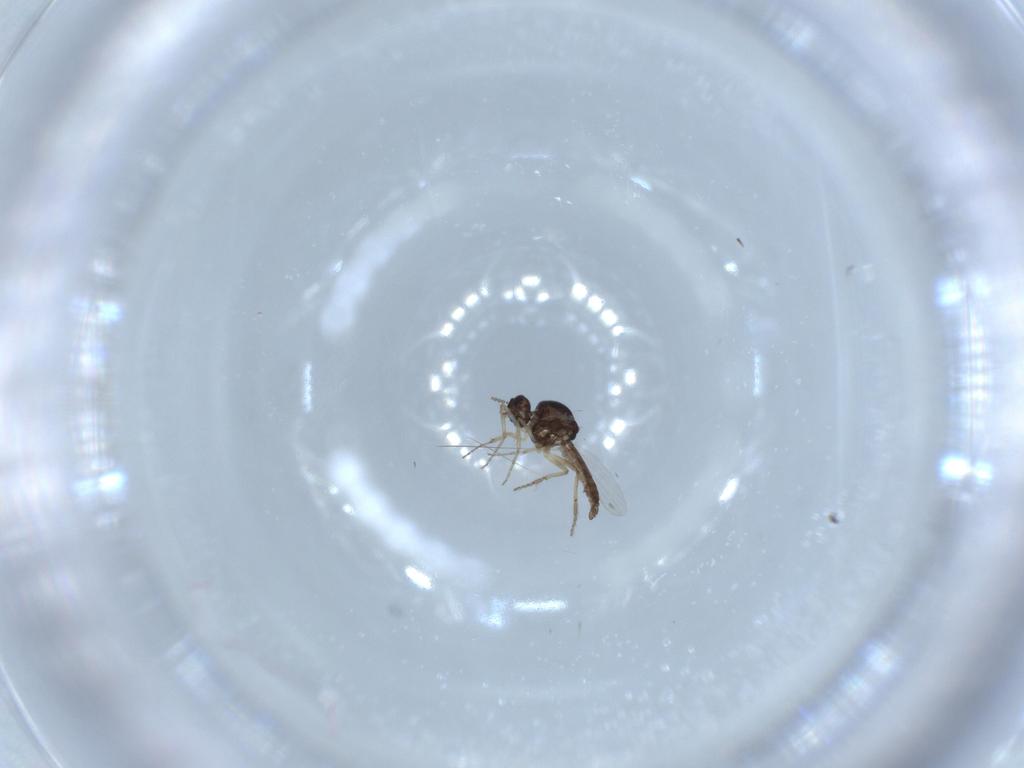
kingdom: Animalia
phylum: Arthropoda
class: Insecta
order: Diptera
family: Ceratopogonidae
